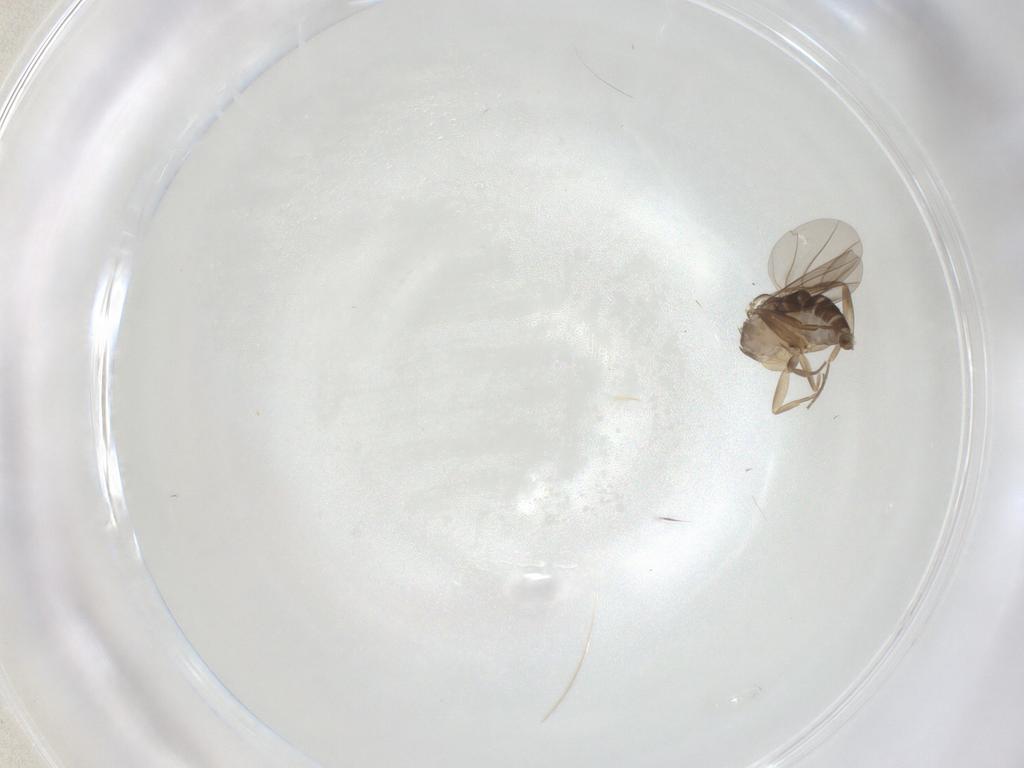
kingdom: Animalia
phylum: Arthropoda
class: Insecta
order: Diptera
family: Phoridae
